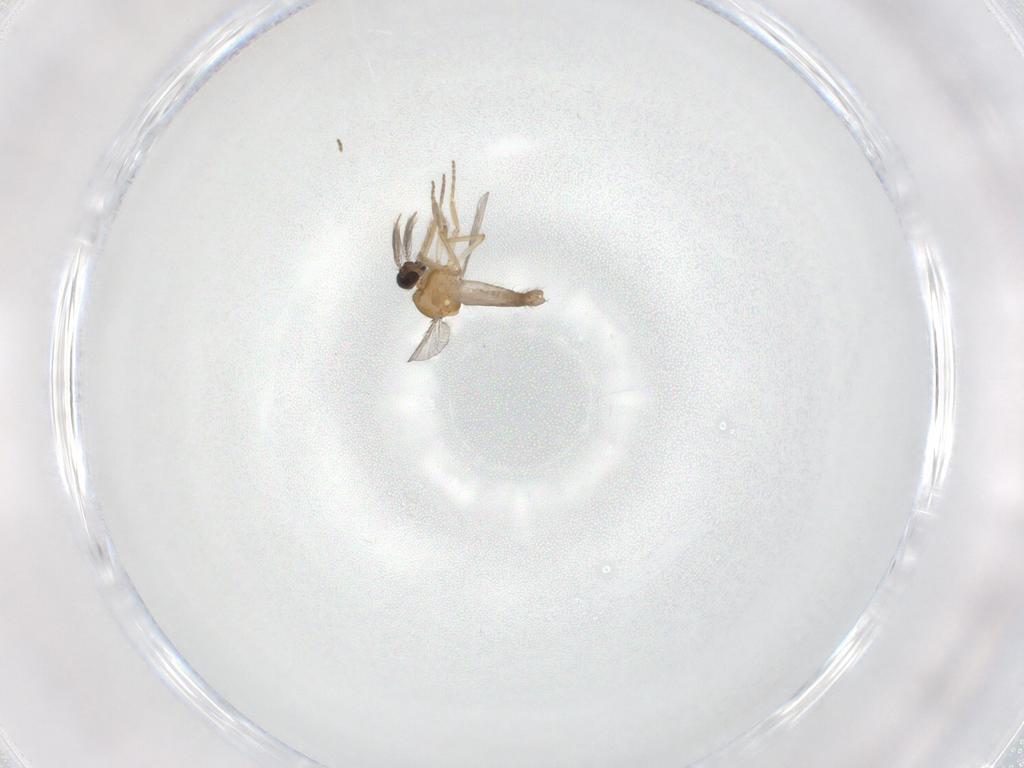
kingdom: Animalia
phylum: Arthropoda
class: Insecta
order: Diptera
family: Ceratopogonidae
